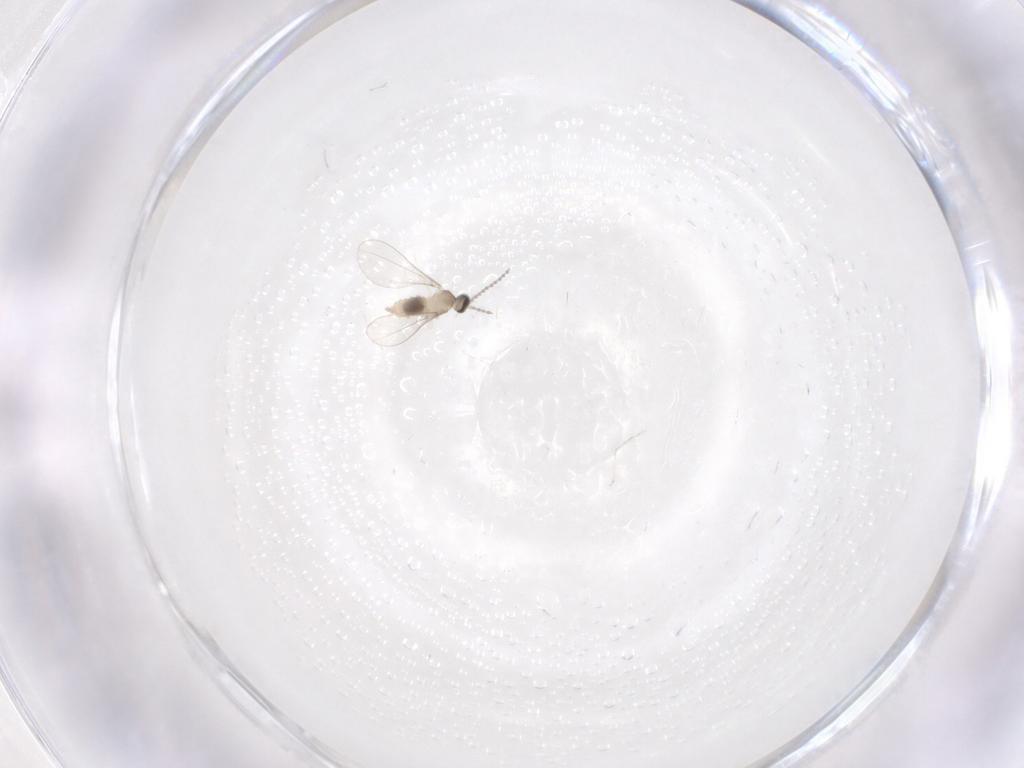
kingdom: Animalia
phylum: Arthropoda
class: Insecta
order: Diptera
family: Cecidomyiidae
